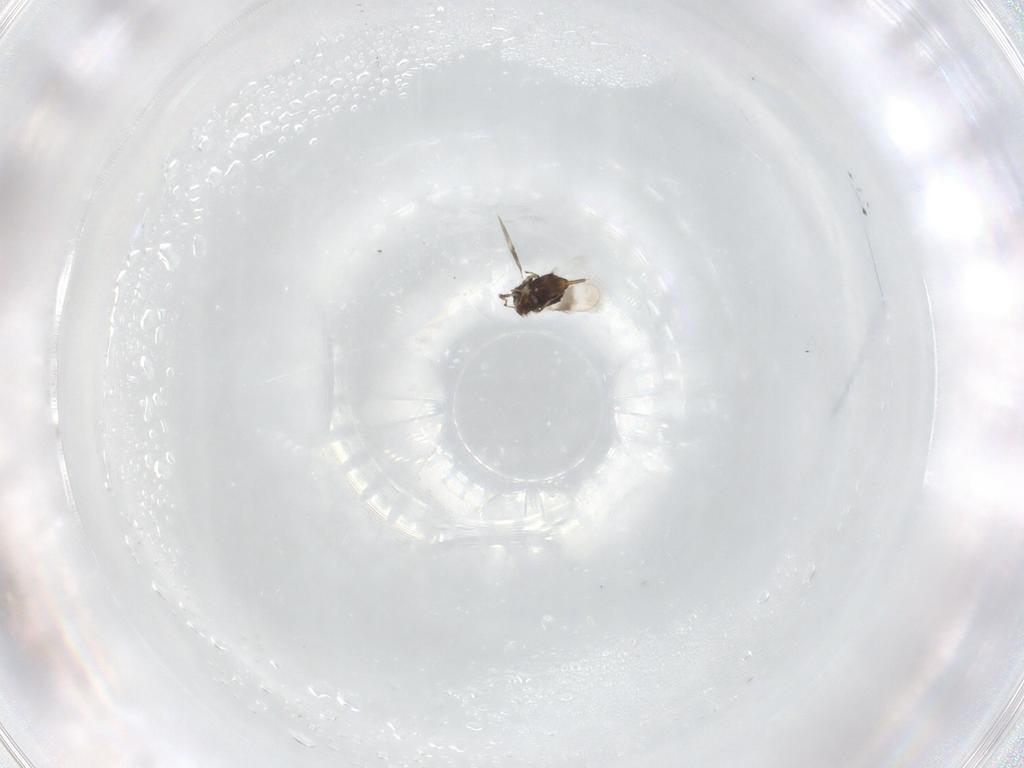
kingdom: Animalia
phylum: Arthropoda
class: Insecta
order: Hymenoptera
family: Azotidae
